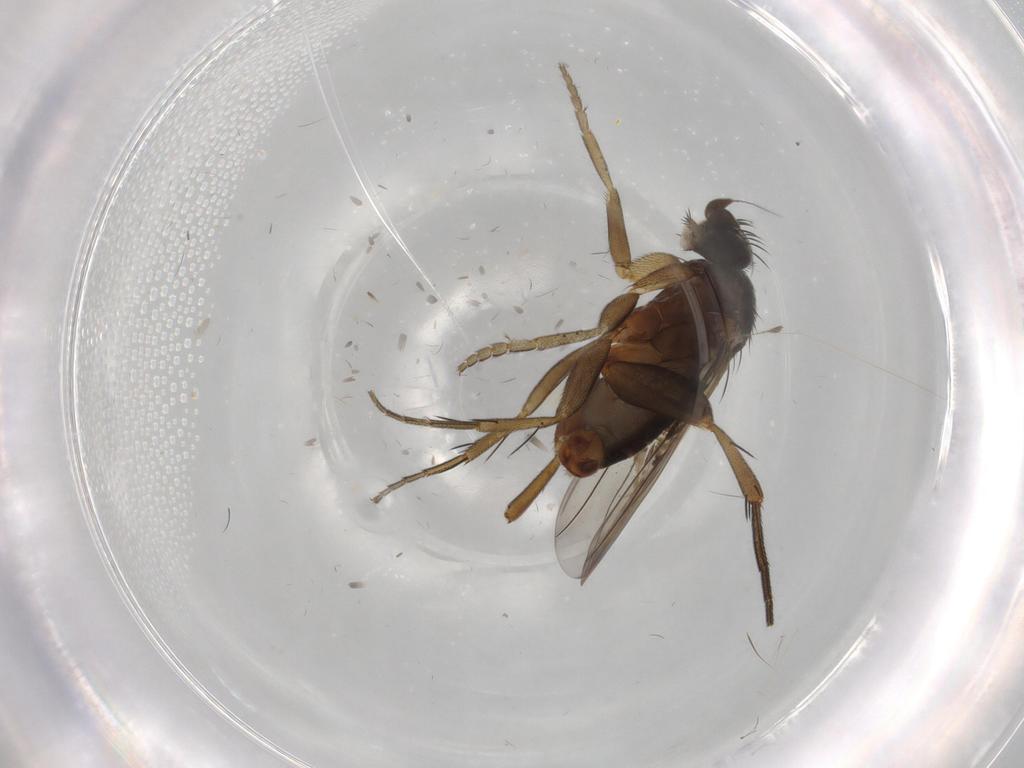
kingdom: Animalia
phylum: Arthropoda
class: Insecta
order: Diptera
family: Phoridae
